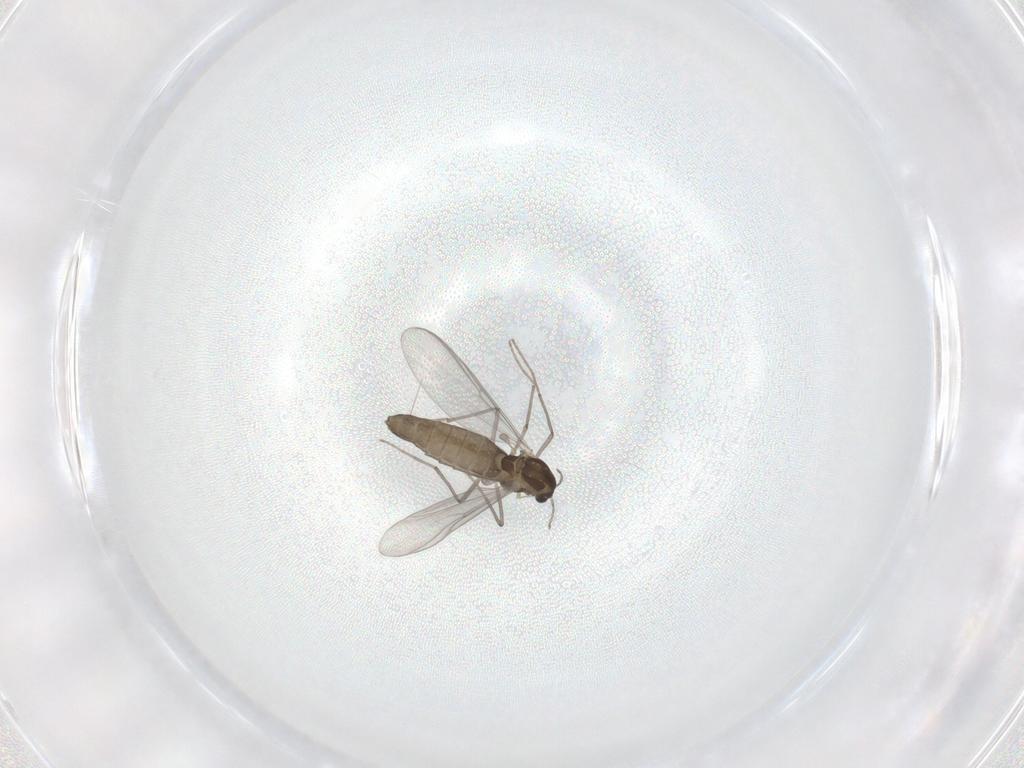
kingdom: Animalia
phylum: Arthropoda
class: Insecta
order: Diptera
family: Chironomidae
